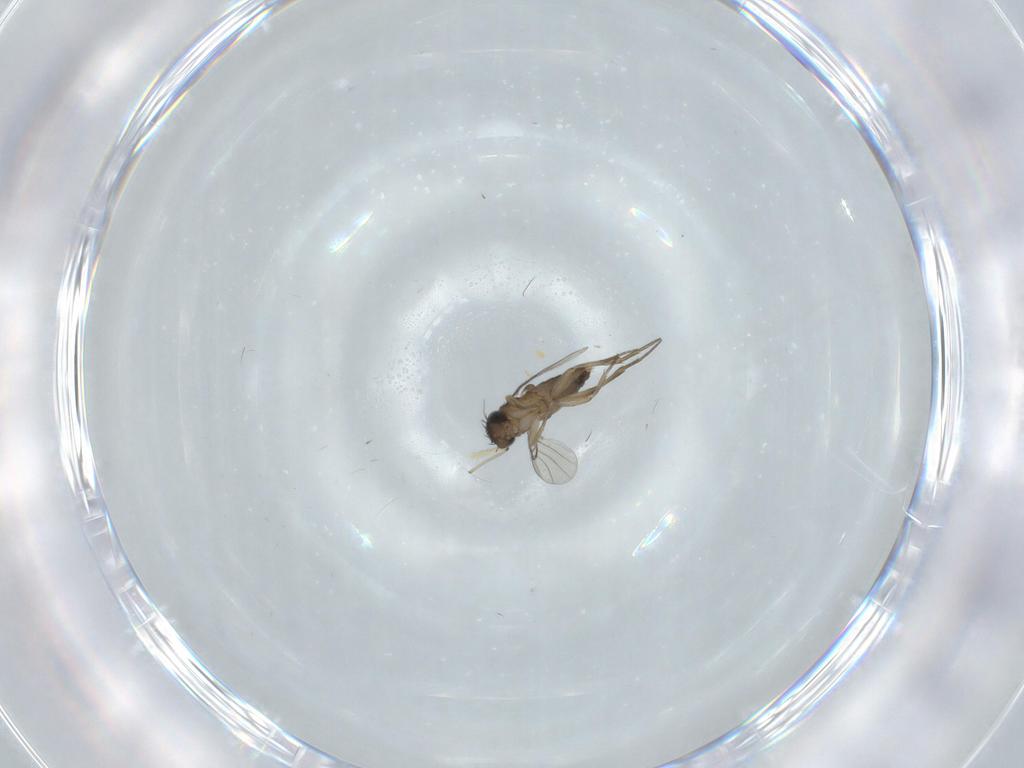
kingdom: Animalia
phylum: Arthropoda
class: Insecta
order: Diptera
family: Chironomidae
